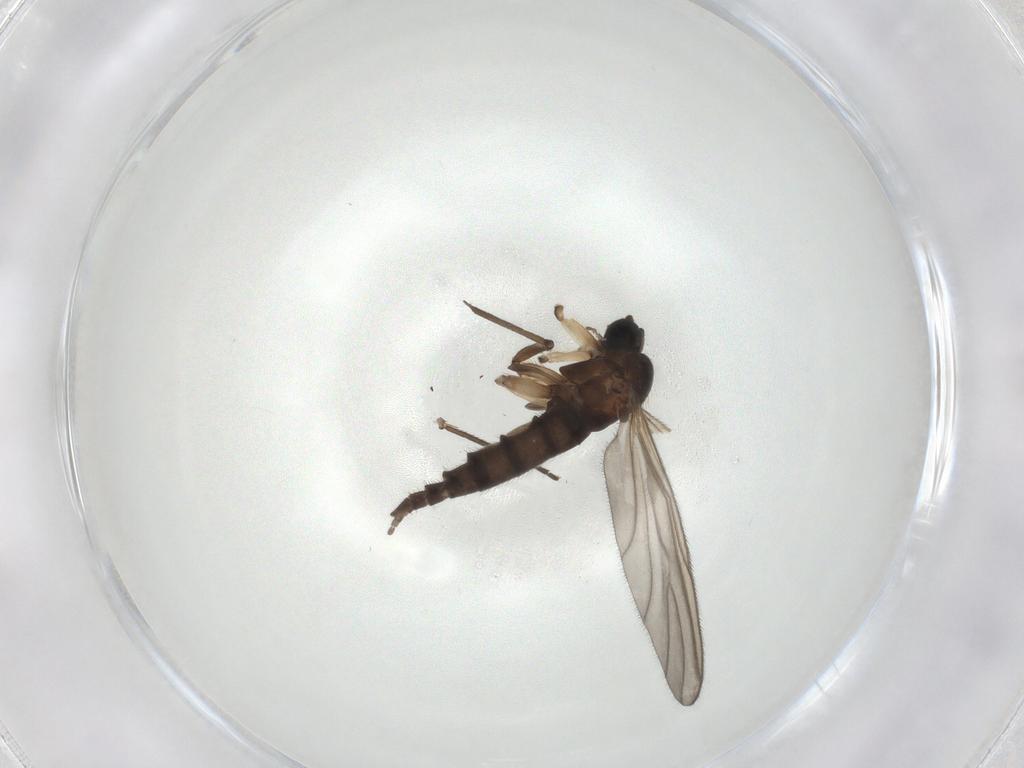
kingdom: Animalia
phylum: Arthropoda
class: Insecta
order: Diptera
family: Sciaridae
